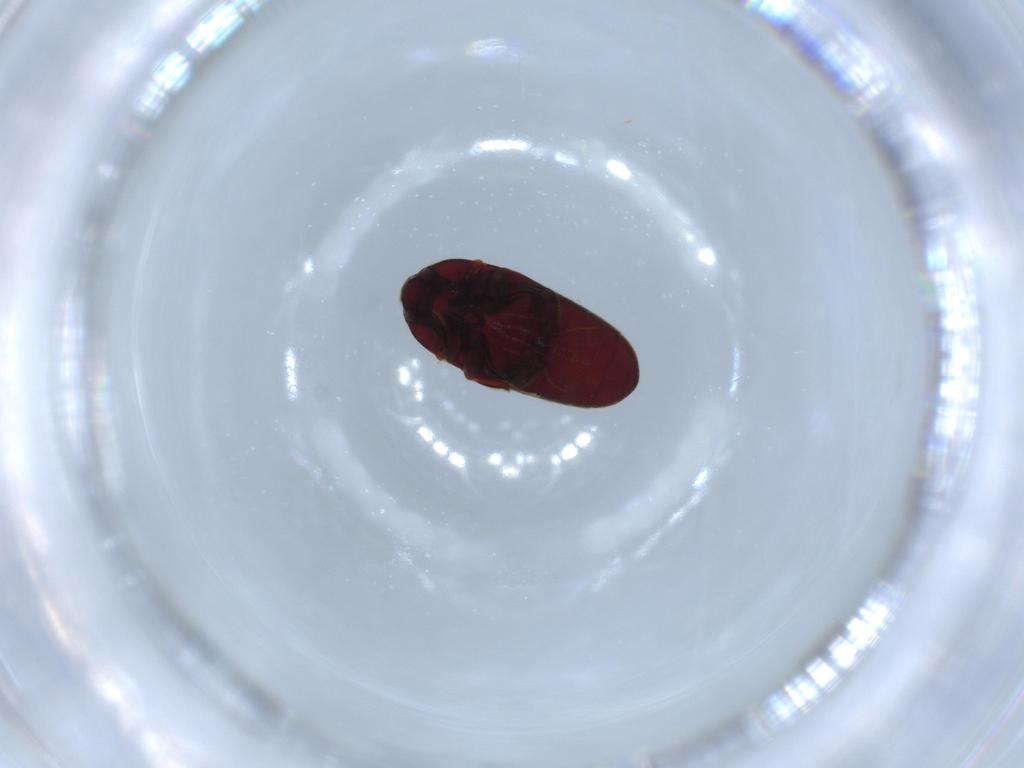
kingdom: Animalia
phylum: Arthropoda
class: Insecta
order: Coleoptera
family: Throscidae
